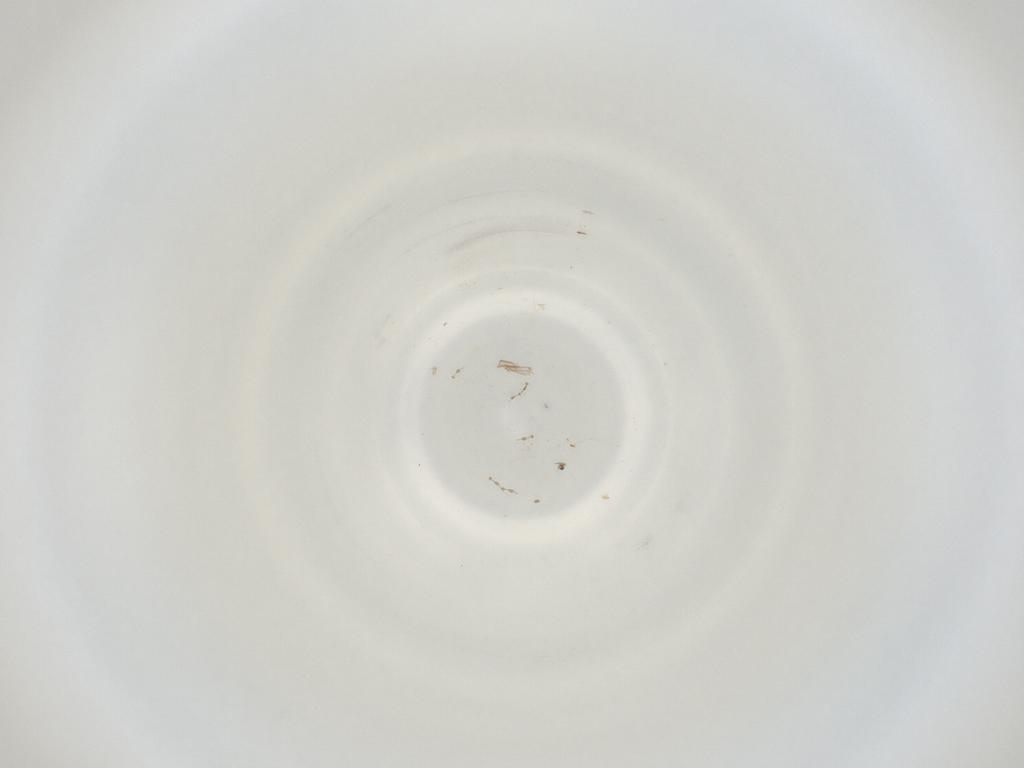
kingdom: Animalia
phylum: Arthropoda
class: Insecta
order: Diptera
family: Cecidomyiidae
